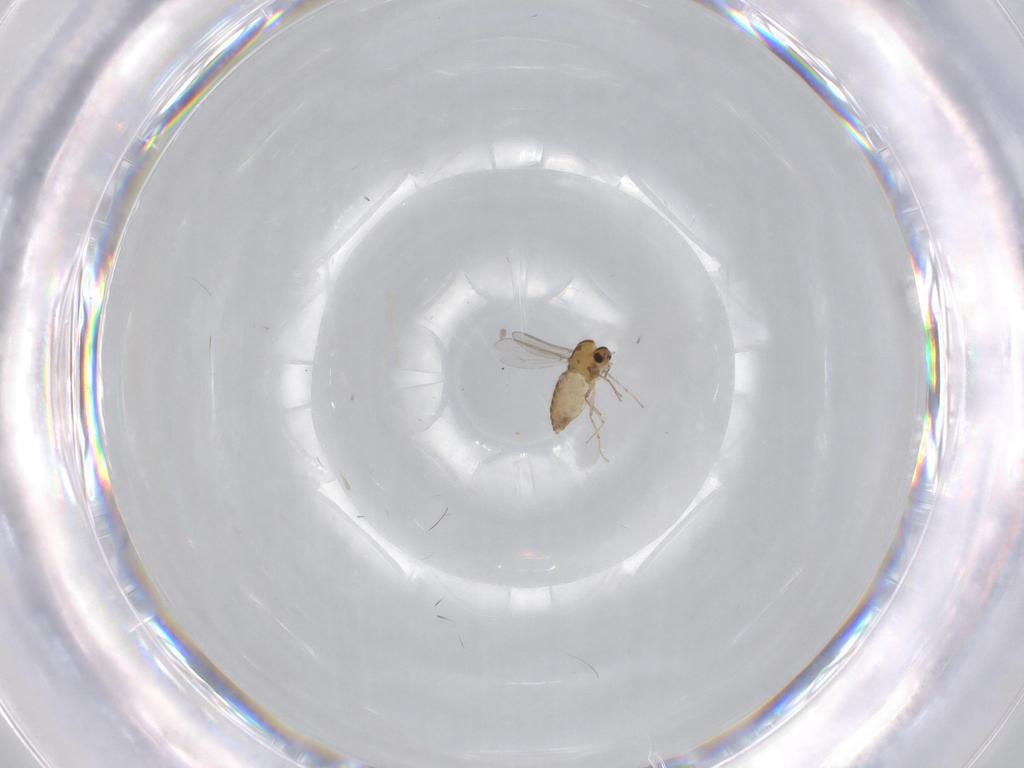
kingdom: Animalia
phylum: Arthropoda
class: Insecta
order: Diptera
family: Chironomidae
